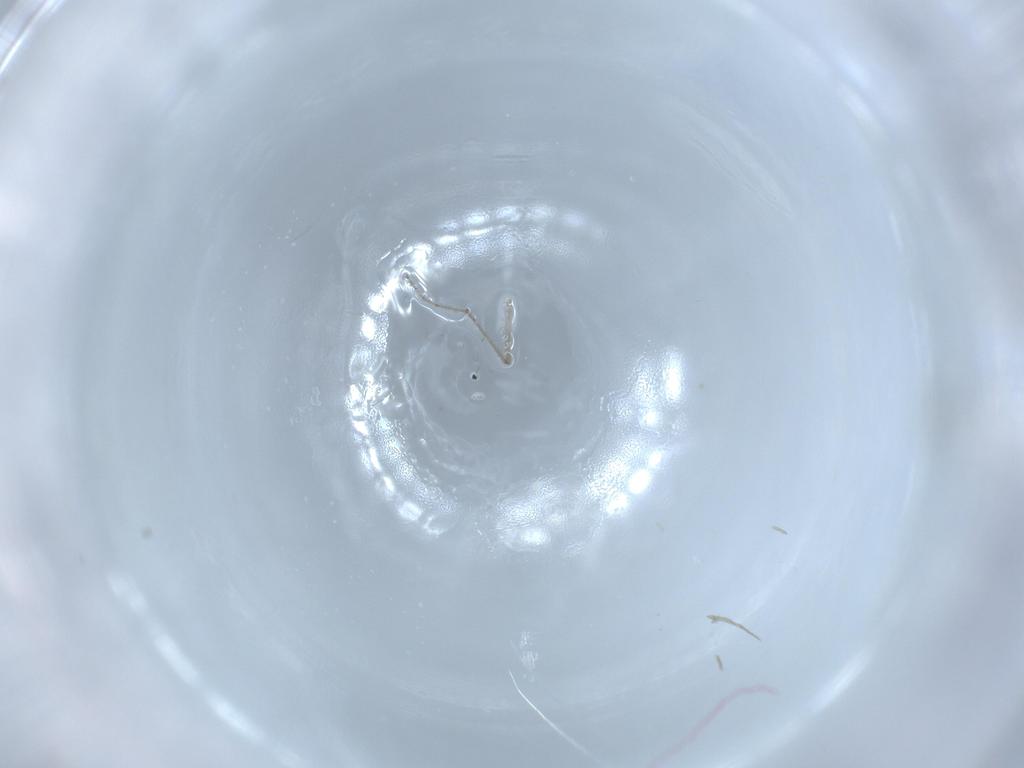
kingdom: Animalia
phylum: Arthropoda
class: Insecta
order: Diptera
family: Chironomidae
